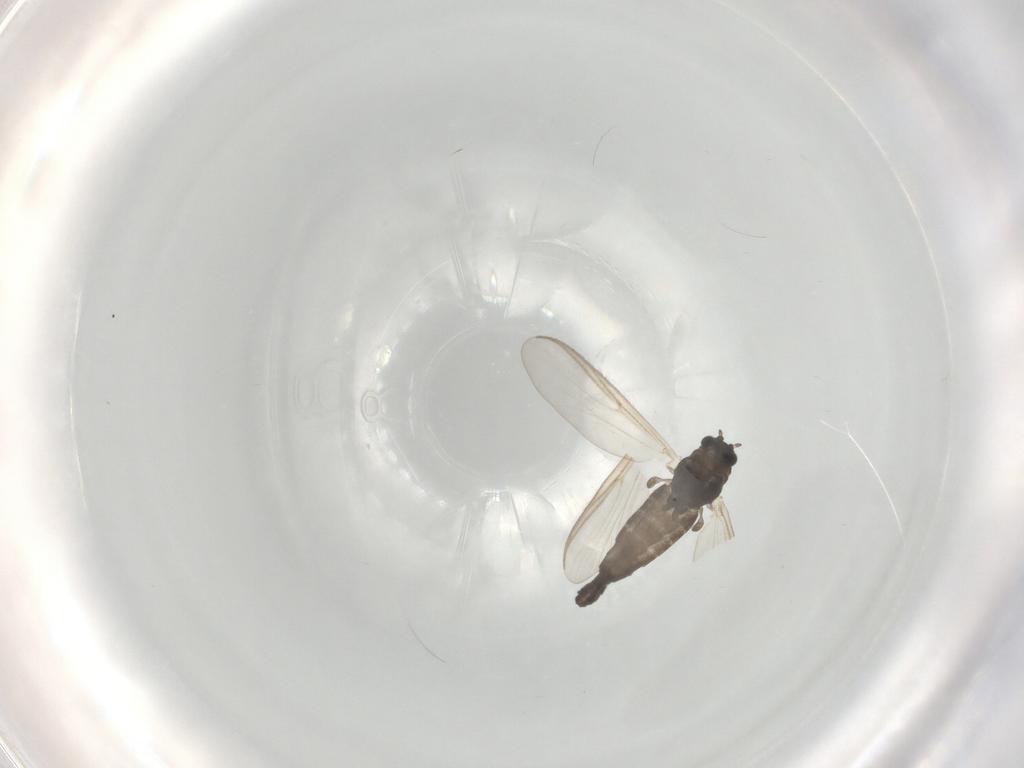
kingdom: Animalia
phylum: Arthropoda
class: Insecta
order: Diptera
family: Chironomidae
